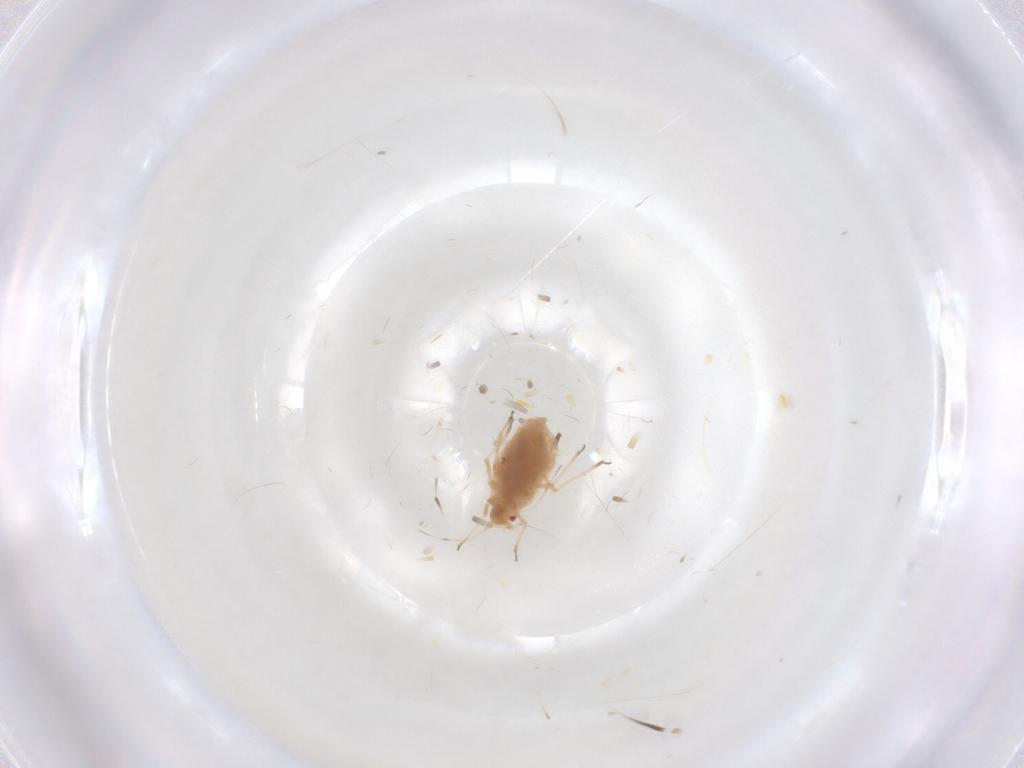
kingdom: Animalia
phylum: Arthropoda
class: Insecta
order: Hemiptera
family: Aphididae
